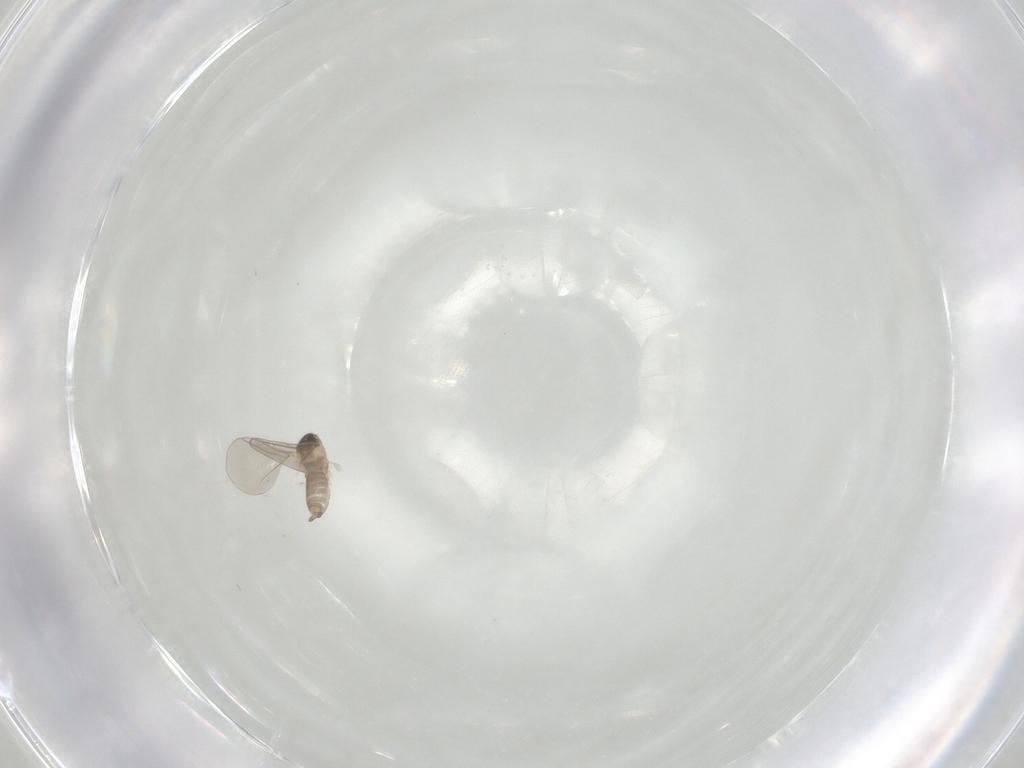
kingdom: Animalia
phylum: Arthropoda
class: Insecta
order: Diptera
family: Cecidomyiidae
